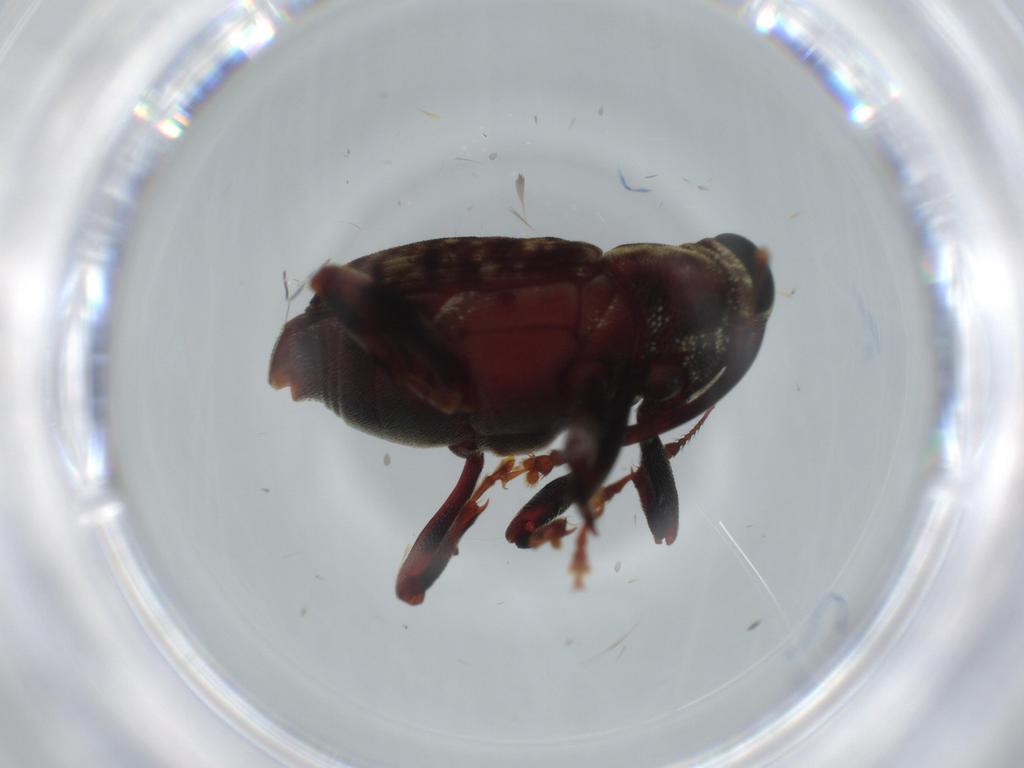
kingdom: Animalia
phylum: Arthropoda
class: Insecta
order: Coleoptera
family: Curculionidae
